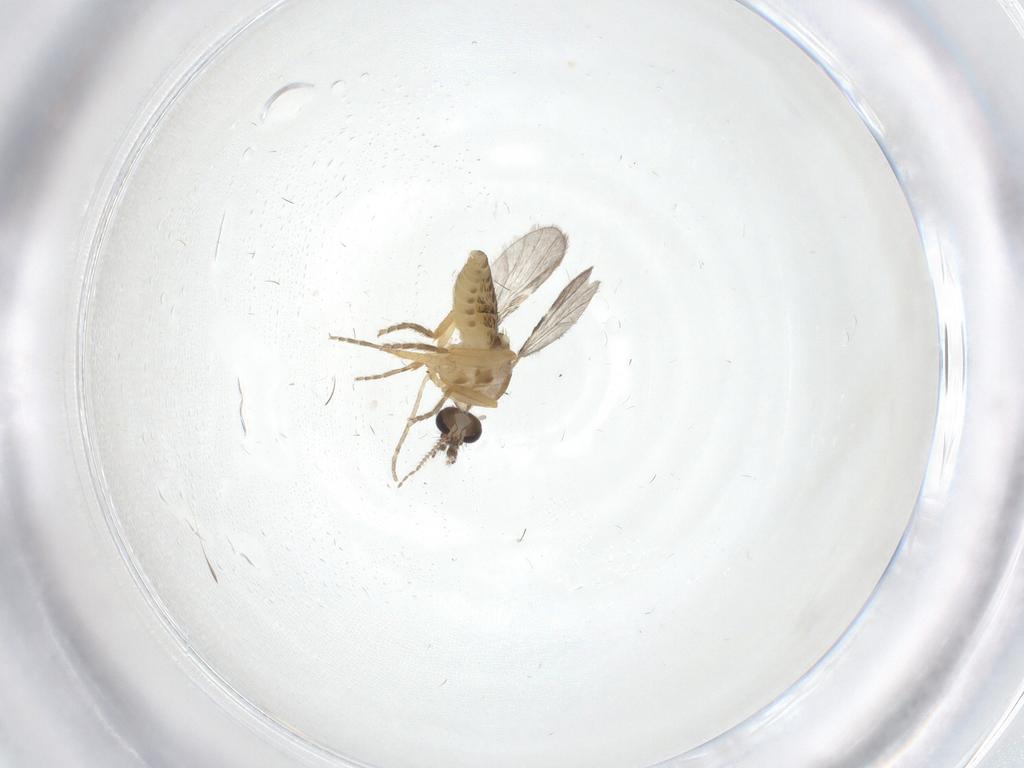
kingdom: Animalia
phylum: Arthropoda
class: Insecta
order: Diptera
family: Ceratopogonidae
